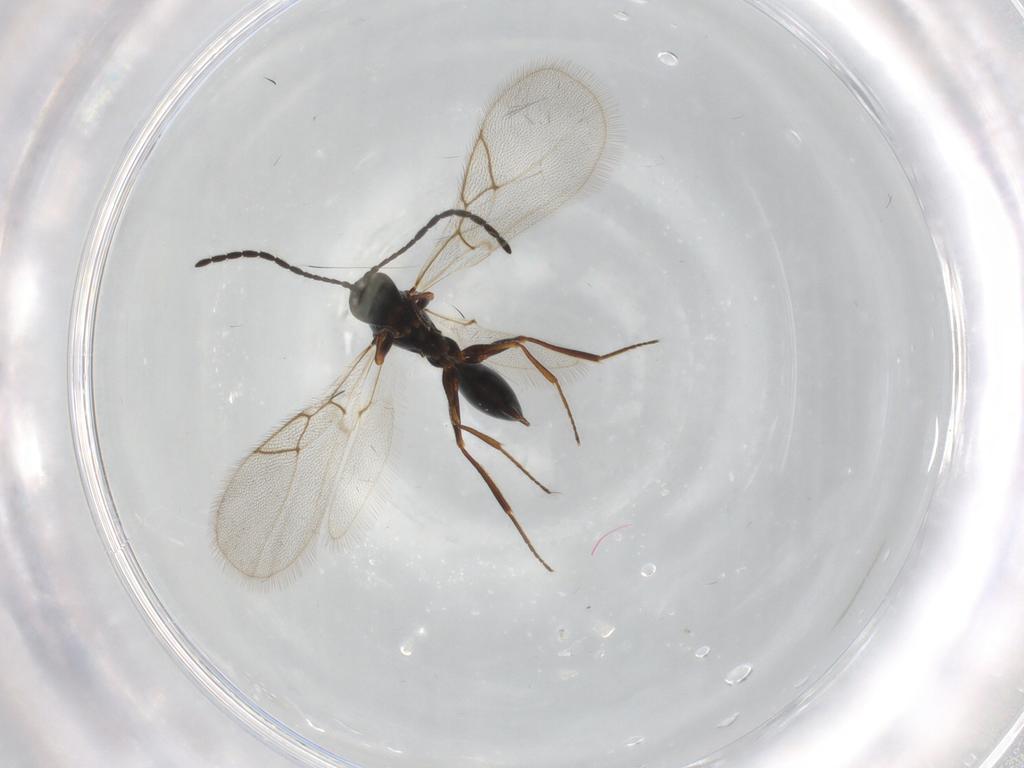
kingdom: Animalia
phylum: Arthropoda
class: Insecta
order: Hymenoptera
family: Figitidae
